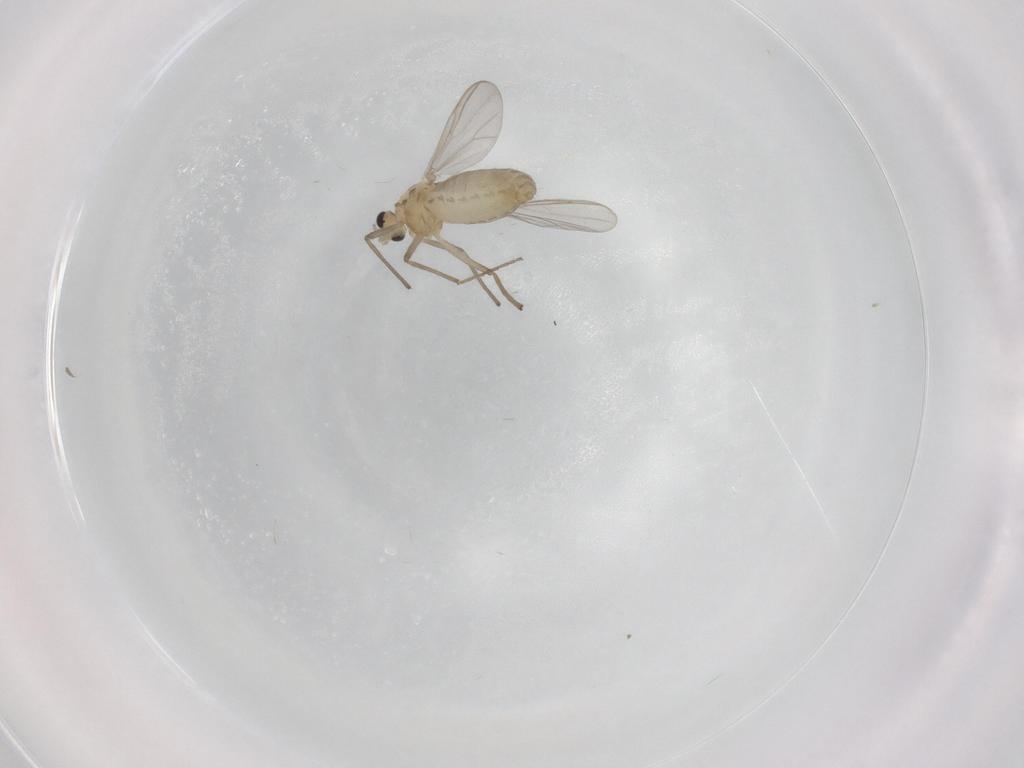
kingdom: Animalia
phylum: Arthropoda
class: Insecta
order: Diptera
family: Chironomidae
